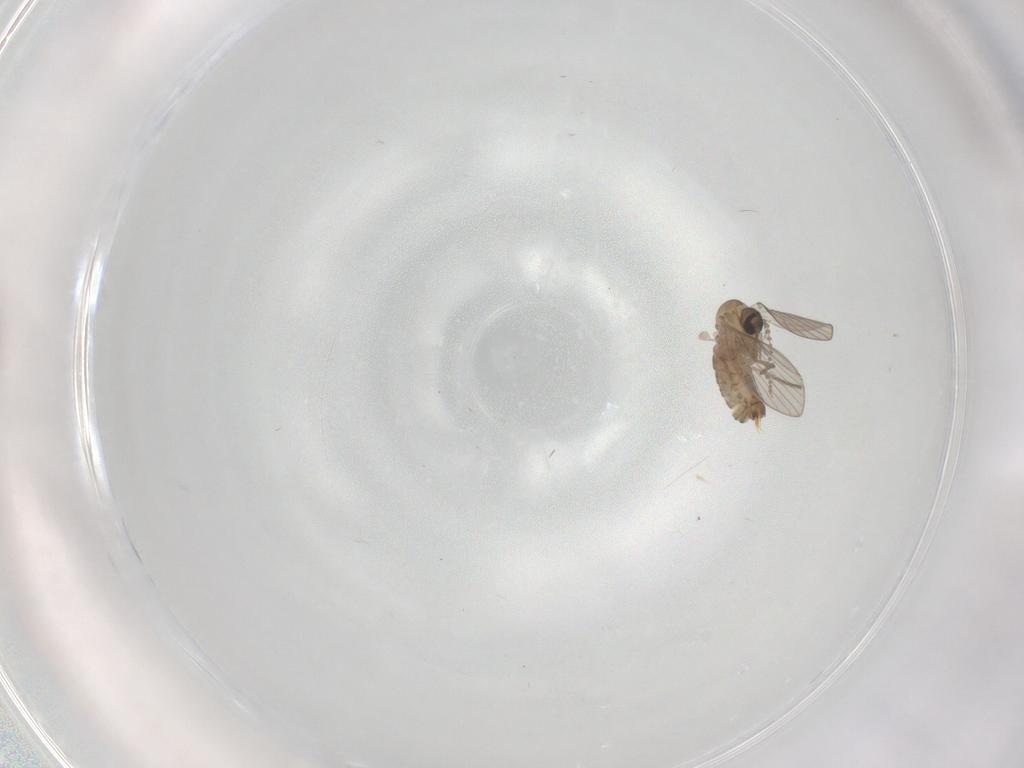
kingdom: Animalia
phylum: Arthropoda
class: Insecta
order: Diptera
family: Psychodidae
